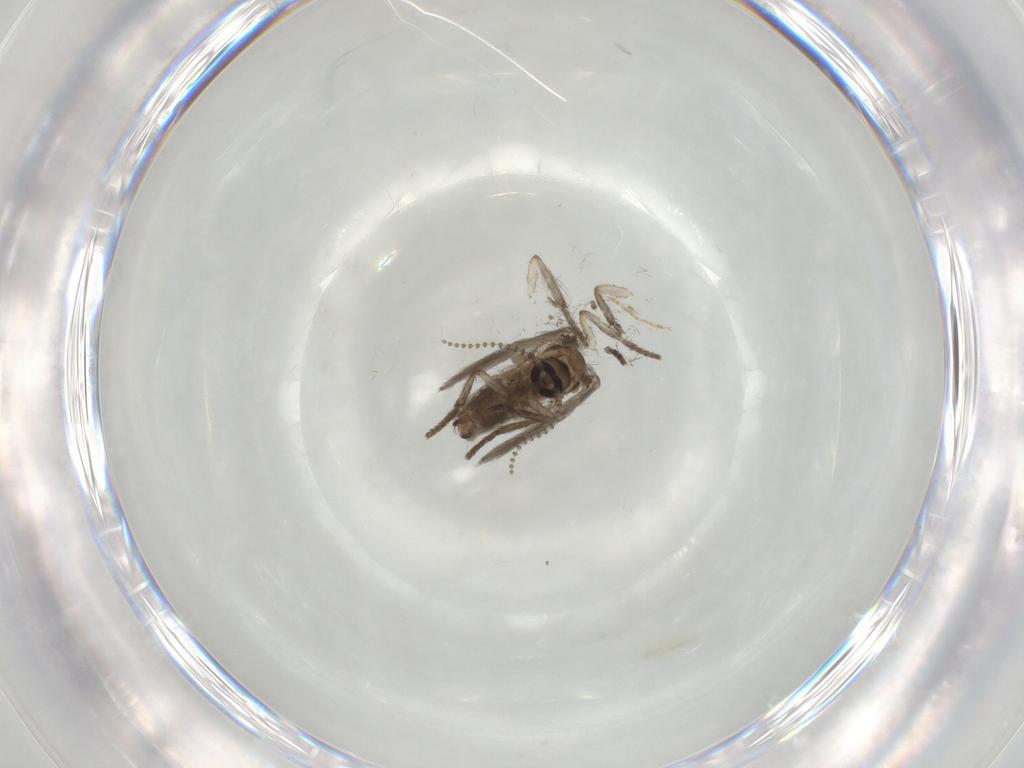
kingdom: Animalia
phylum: Arthropoda
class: Insecta
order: Diptera
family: Psychodidae
